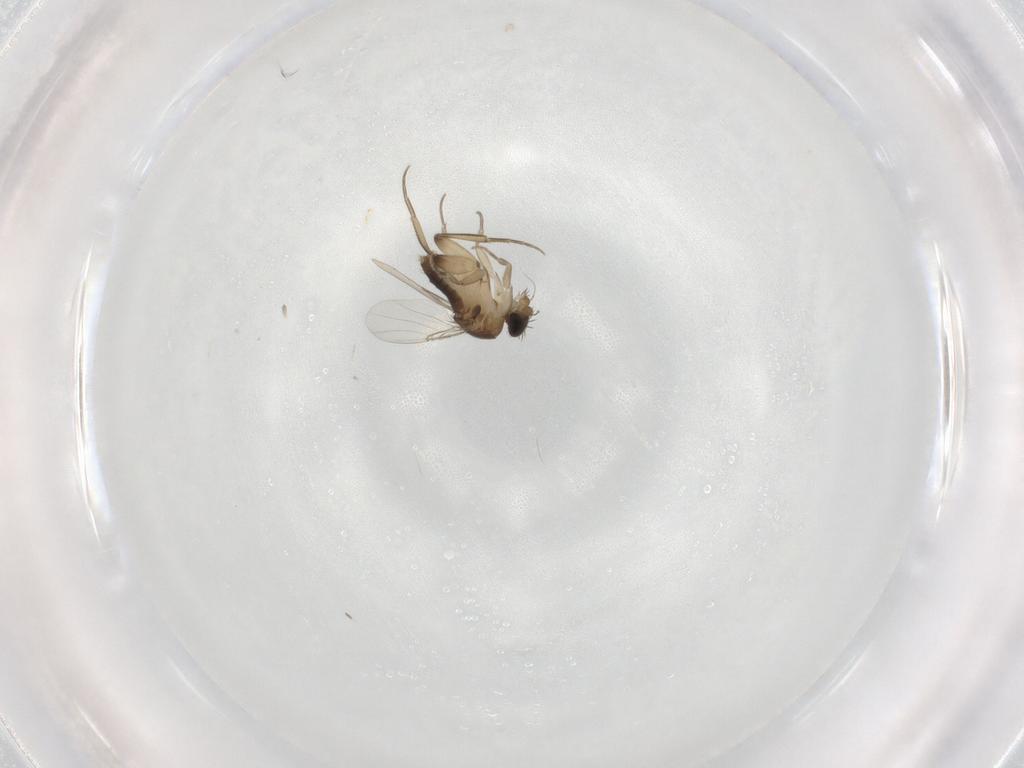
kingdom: Animalia
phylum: Arthropoda
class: Insecta
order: Diptera
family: Phoridae
